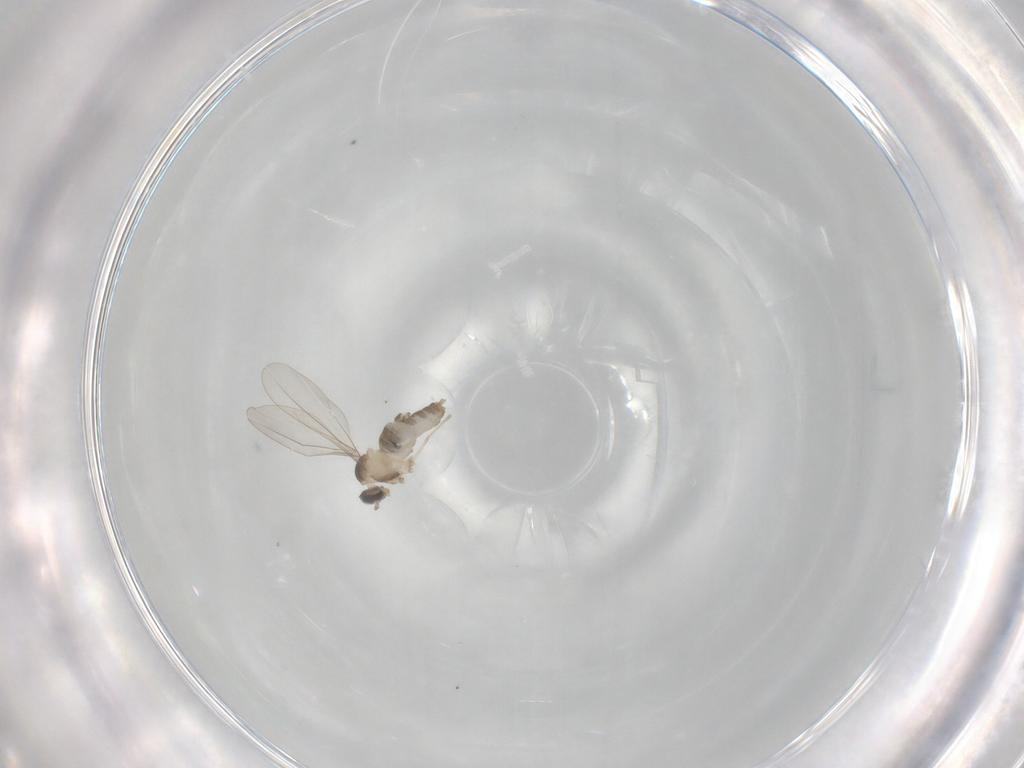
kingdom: Animalia
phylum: Arthropoda
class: Insecta
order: Diptera
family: Cecidomyiidae
